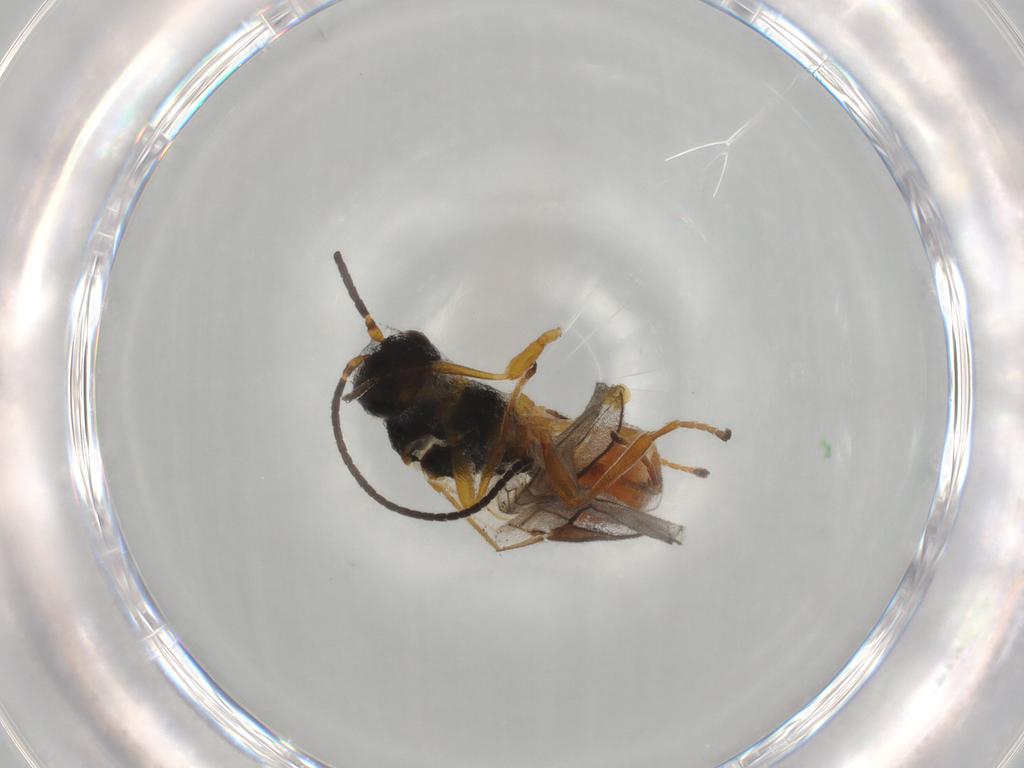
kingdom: Animalia
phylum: Arthropoda
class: Insecta
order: Hymenoptera
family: Braconidae
